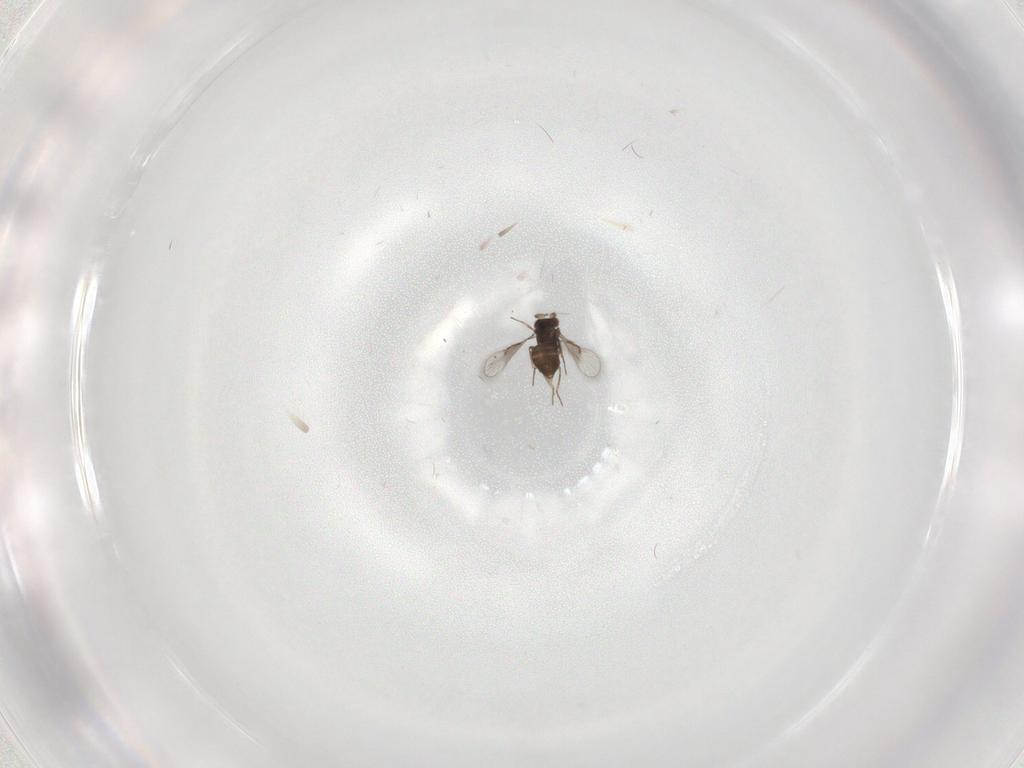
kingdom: Animalia
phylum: Arthropoda
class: Insecta
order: Hymenoptera
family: Trichogrammatidae
